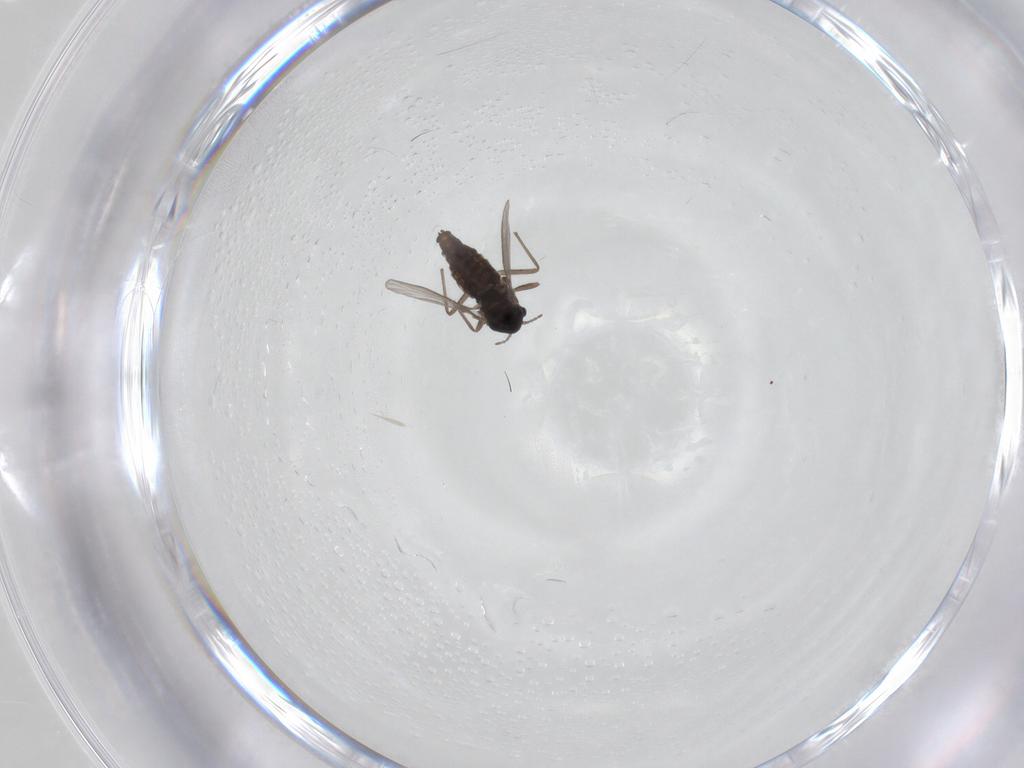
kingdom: Animalia
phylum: Arthropoda
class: Insecta
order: Diptera
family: Chironomidae
